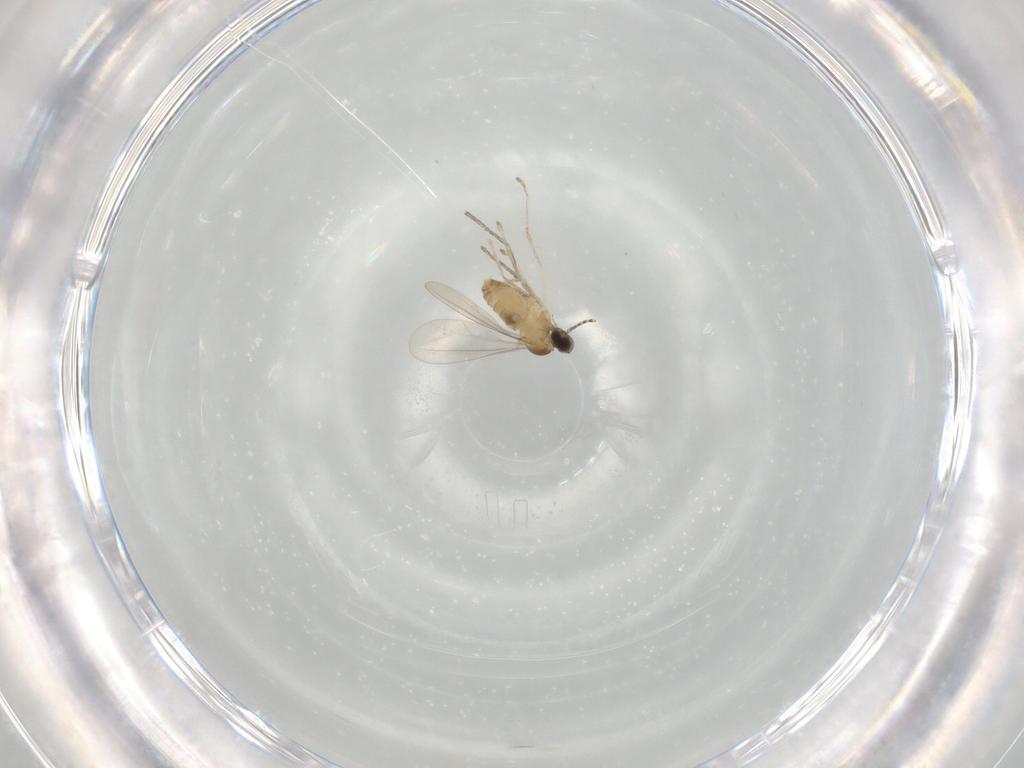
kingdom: Animalia
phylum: Arthropoda
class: Insecta
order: Diptera
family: Cecidomyiidae
